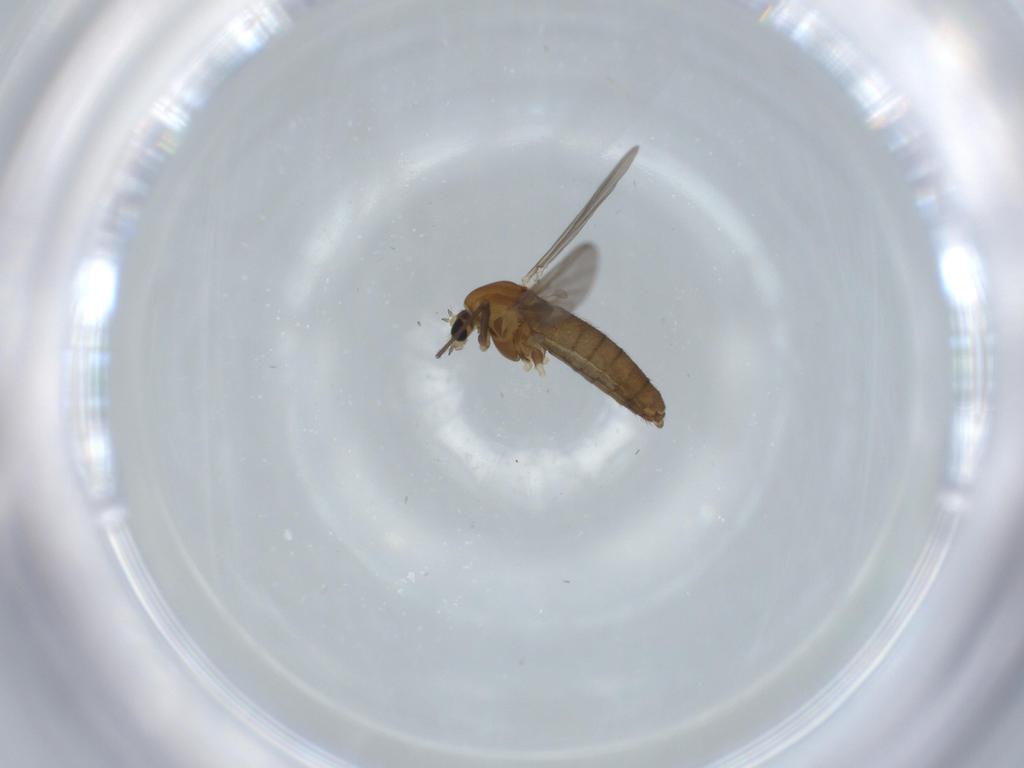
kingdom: Animalia
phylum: Arthropoda
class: Insecta
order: Diptera
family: Chironomidae
